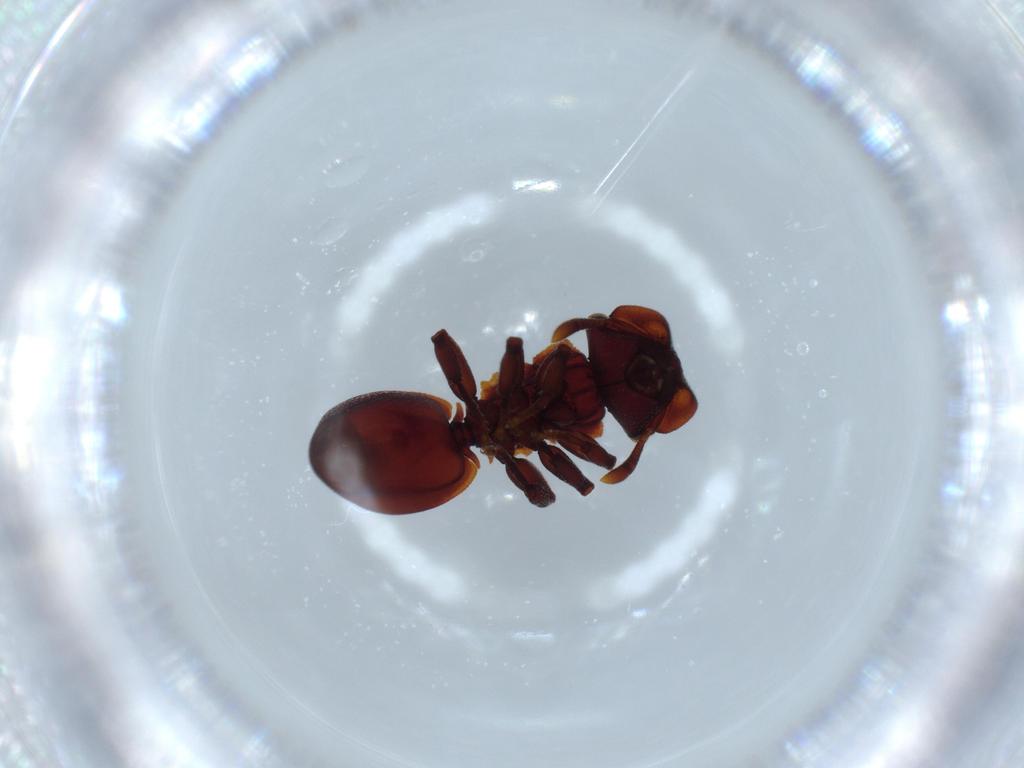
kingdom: Animalia
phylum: Arthropoda
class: Insecta
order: Hymenoptera
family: Formicidae
